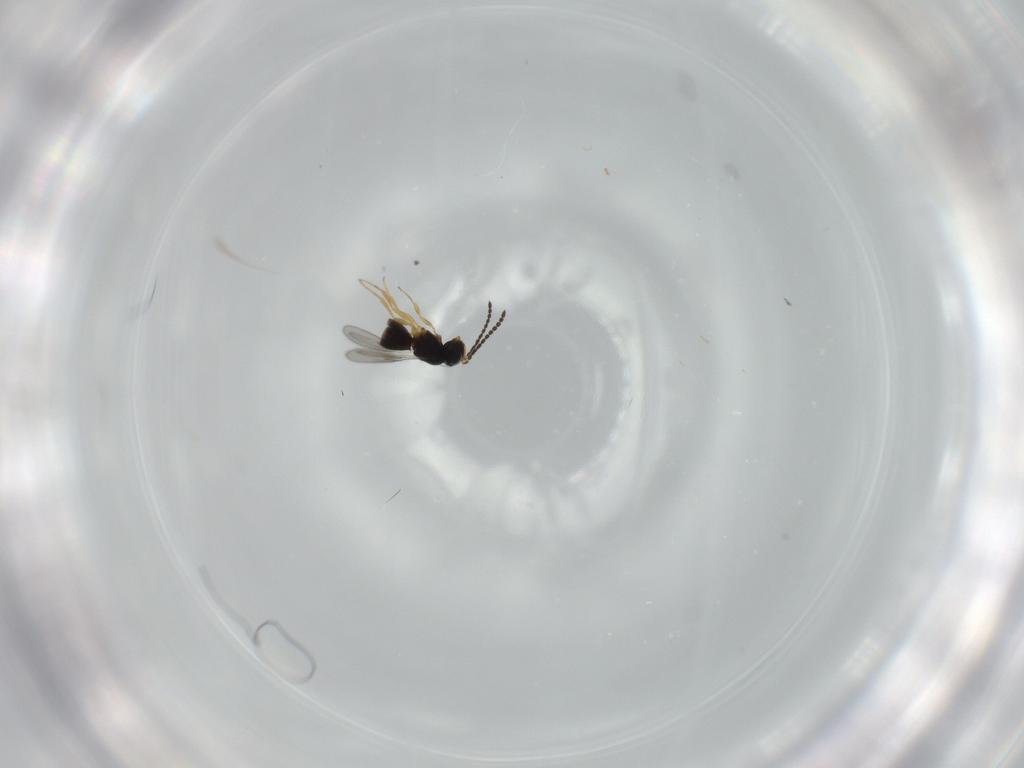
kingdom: Animalia
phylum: Arthropoda
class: Insecta
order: Hymenoptera
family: Scelionidae
